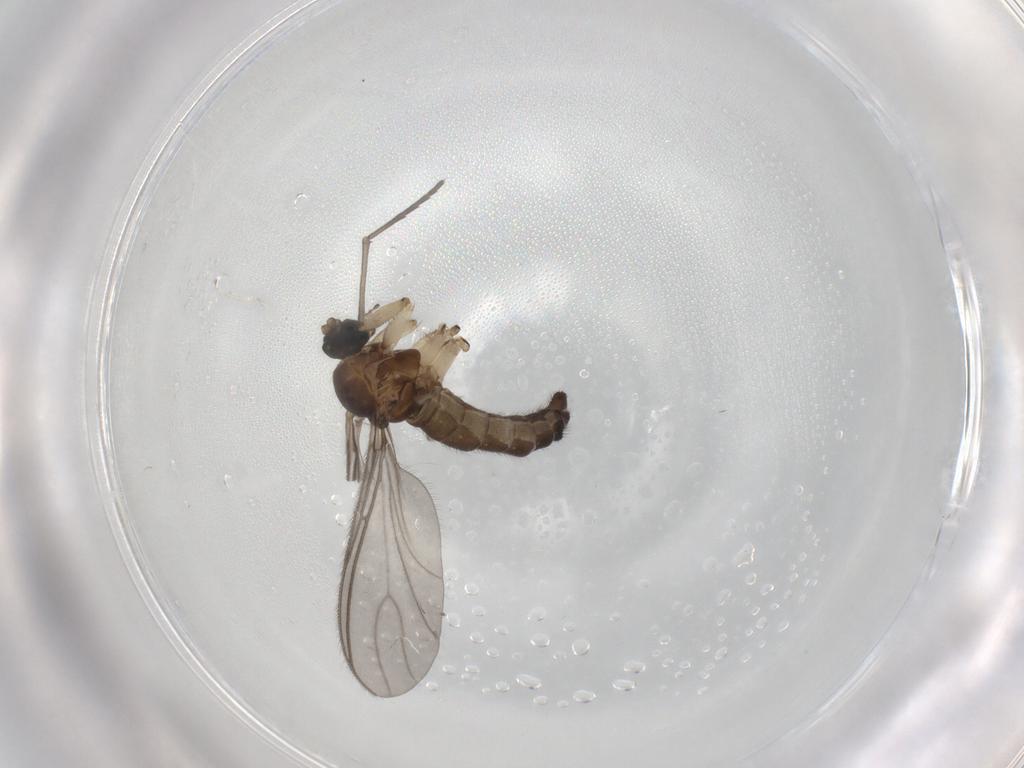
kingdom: Animalia
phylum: Arthropoda
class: Insecta
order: Diptera
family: Sciaridae
